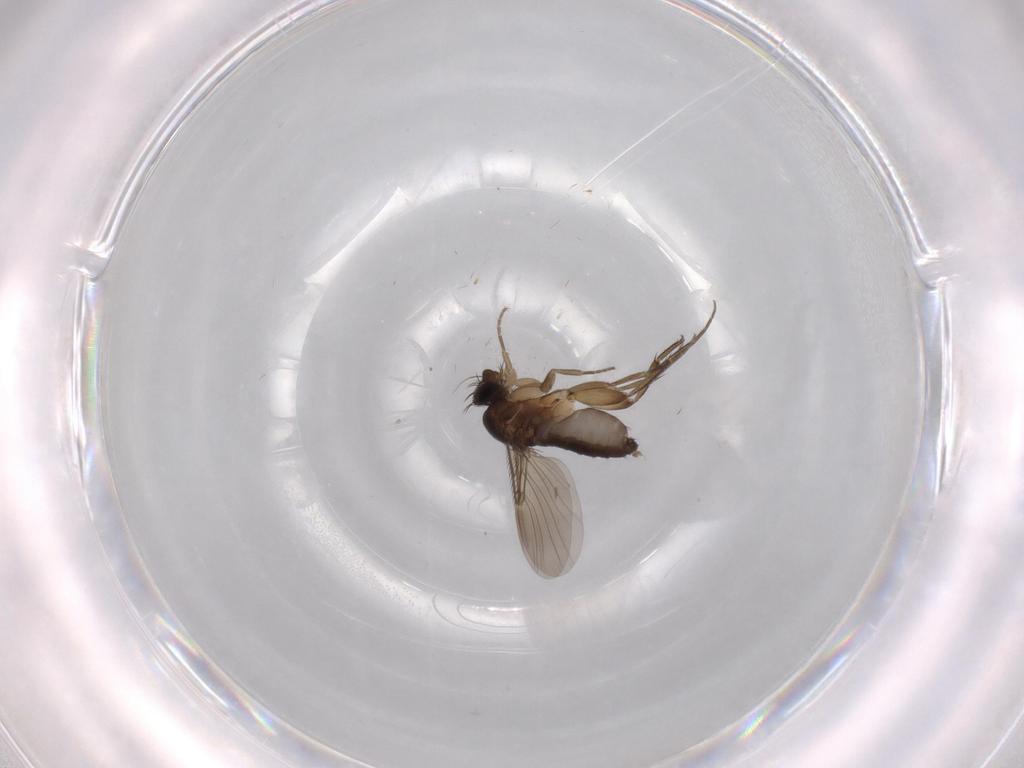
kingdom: Animalia
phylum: Arthropoda
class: Insecta
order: Diptera
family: Phoridae
